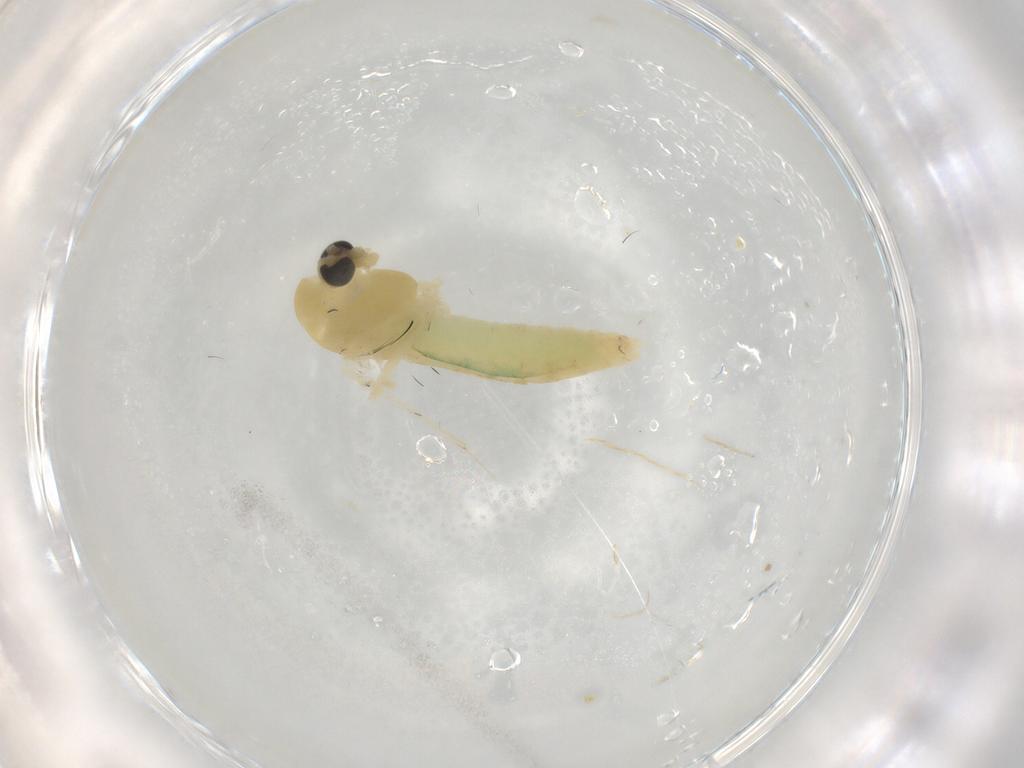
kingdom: Animalia
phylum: Arthropoda
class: Insecta
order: Diptera
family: Chironomidae
